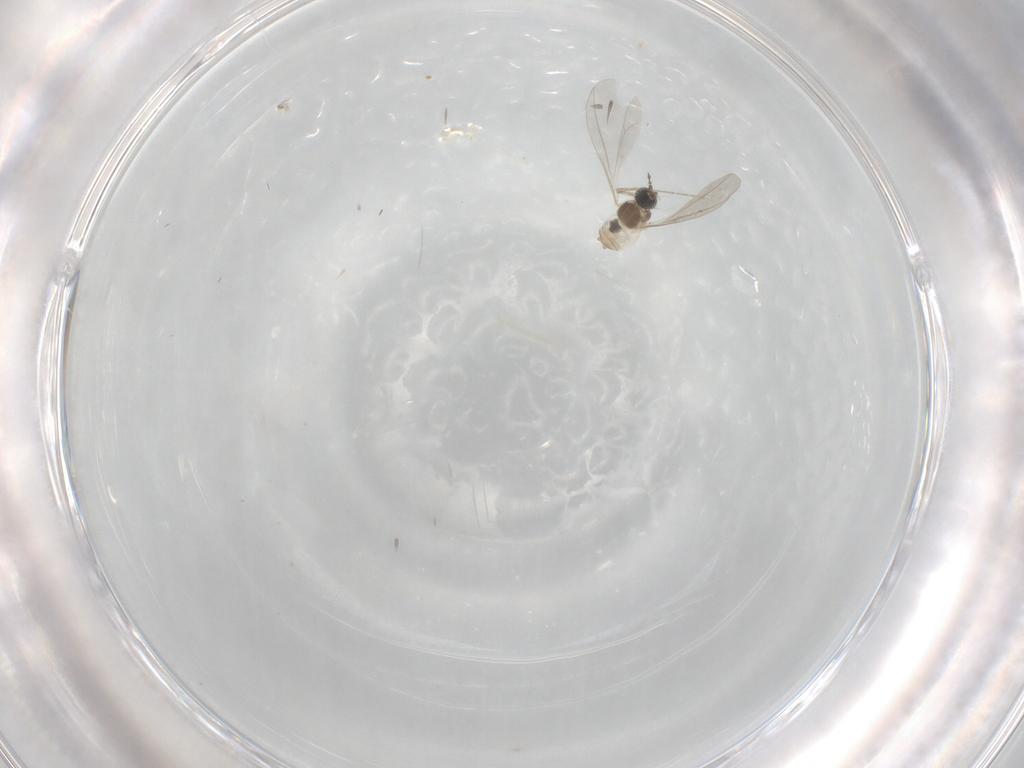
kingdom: Animalia
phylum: Arthropoda
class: Insecta
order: Diptera
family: Cecidomyiidae
